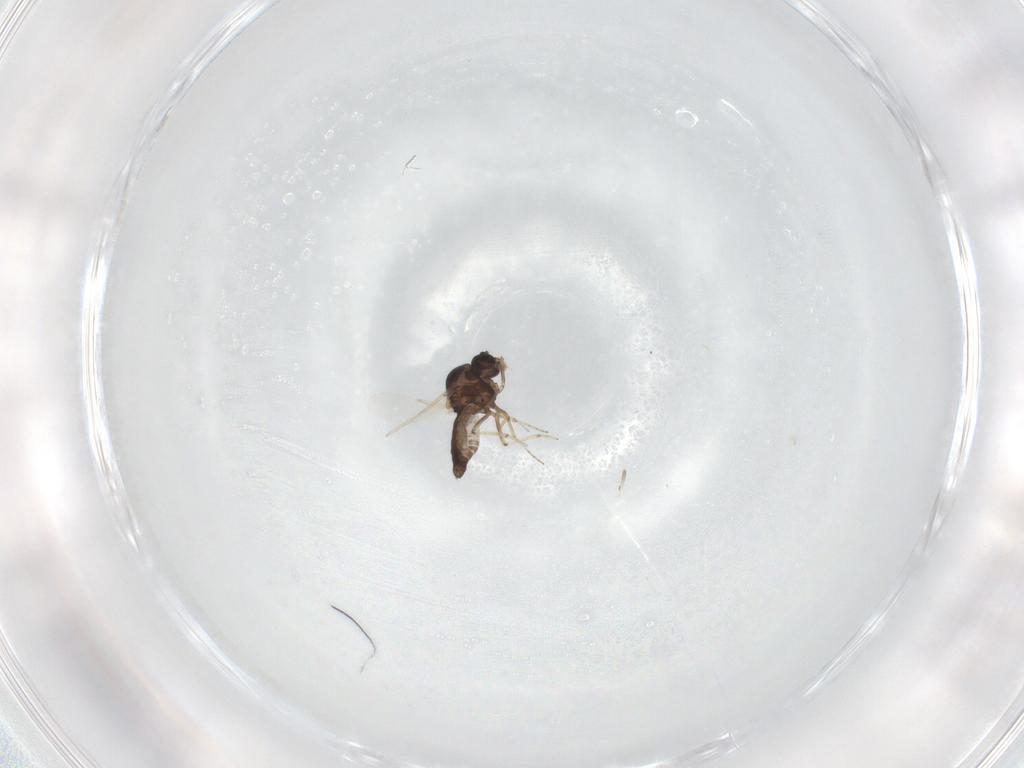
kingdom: Animalia
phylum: Arthropoda
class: Insecta
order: Diptera
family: Ceratopogonidae
